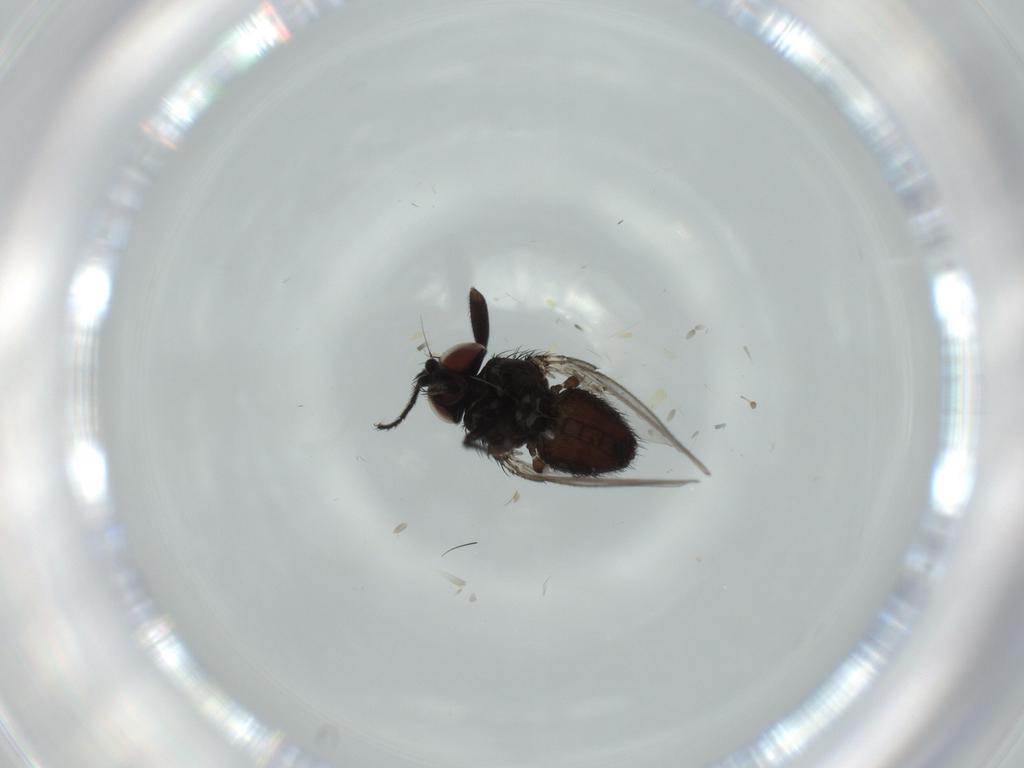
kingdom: Animalia
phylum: Arthropoda
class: Insecta
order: Diptera
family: Milichiidae
